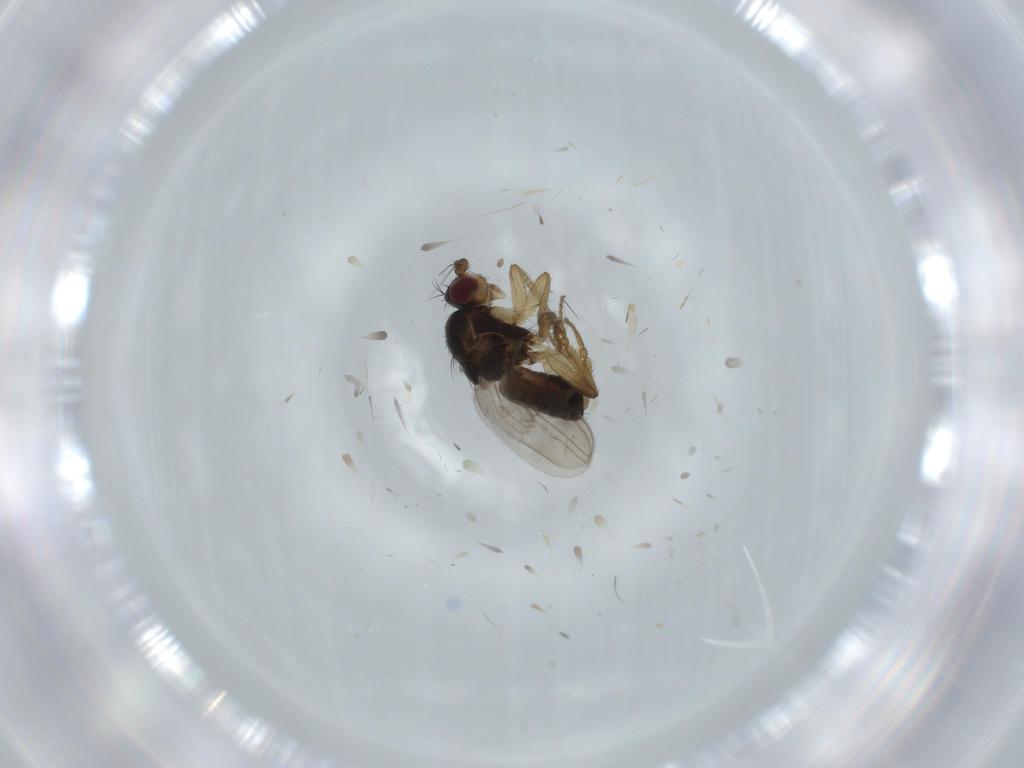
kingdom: Animalia
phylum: Arthropoda
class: Insecta
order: Diptera
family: Sphaeroceridae
